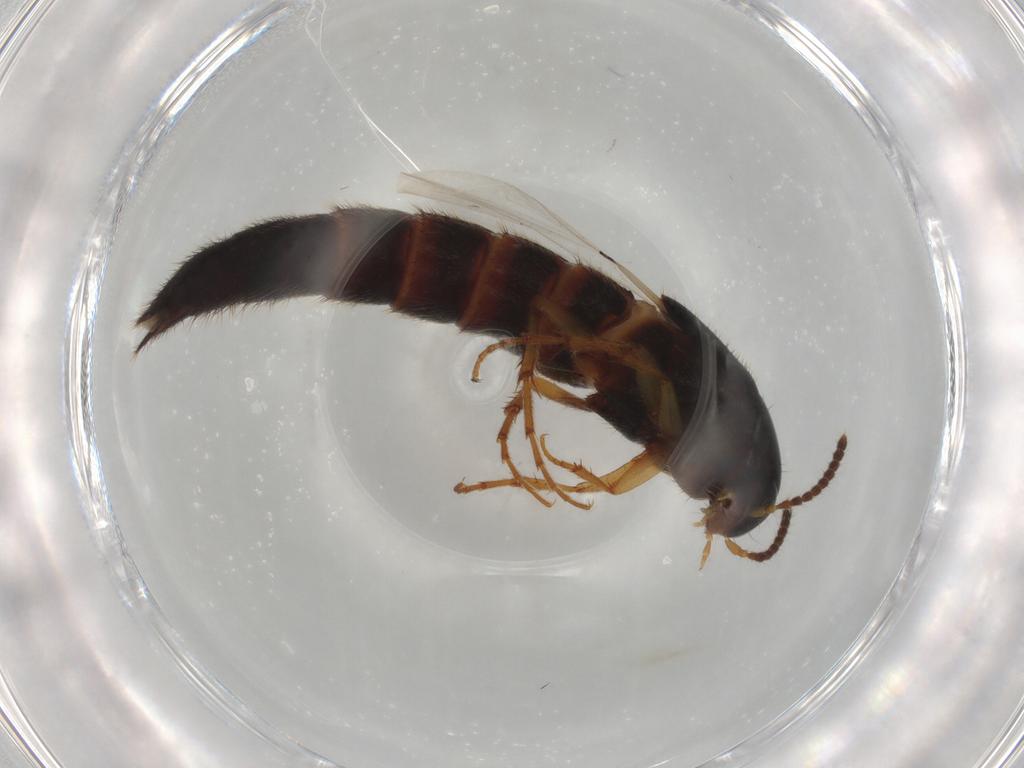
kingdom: Animalia
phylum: Arthropoda
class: Insecta
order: Coleoptera
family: Staphylinidae
